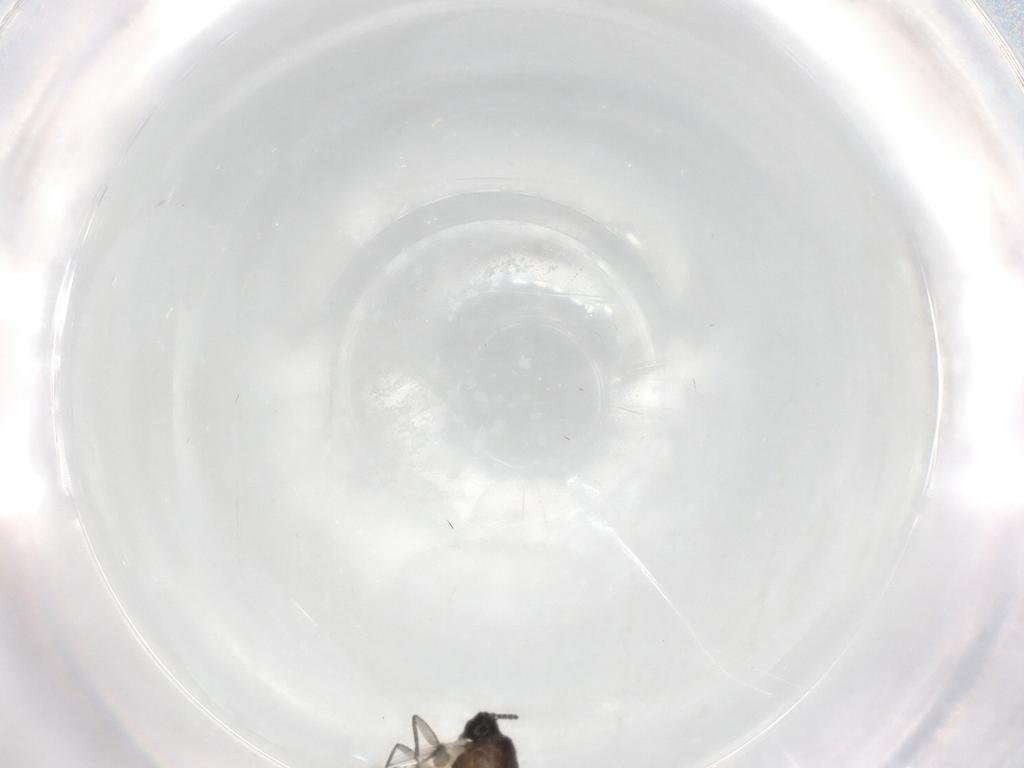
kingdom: Animalia
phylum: Arthropoda
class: Insecta
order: Diptera
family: Sciaridae
